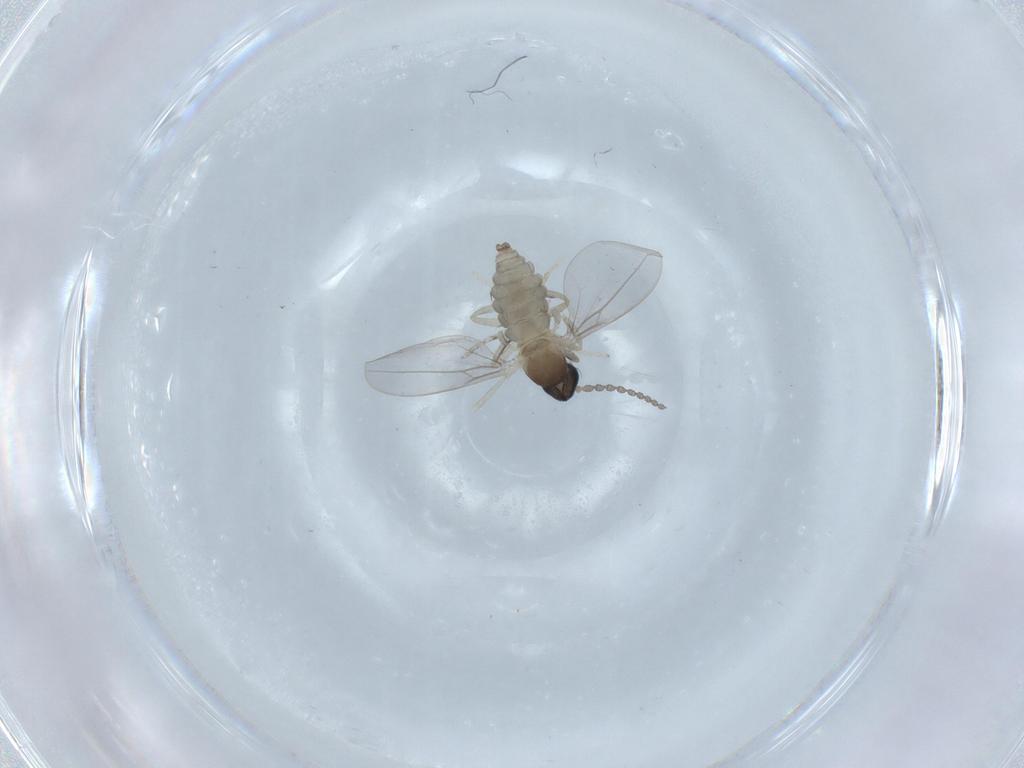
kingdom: Animalia
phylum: Arthropoda
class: Insecta
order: Diptera
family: Cecidomyiidae
